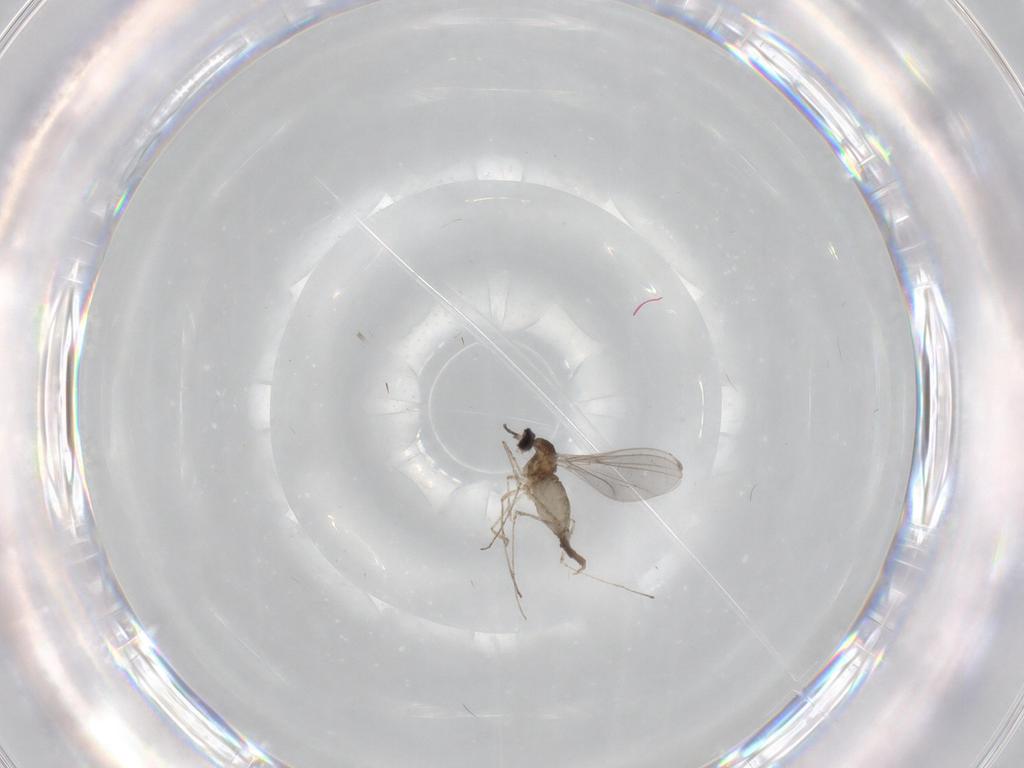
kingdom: Animalia
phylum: Arthropoda
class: Insecta
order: Diptera
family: Cecidomyiidae
